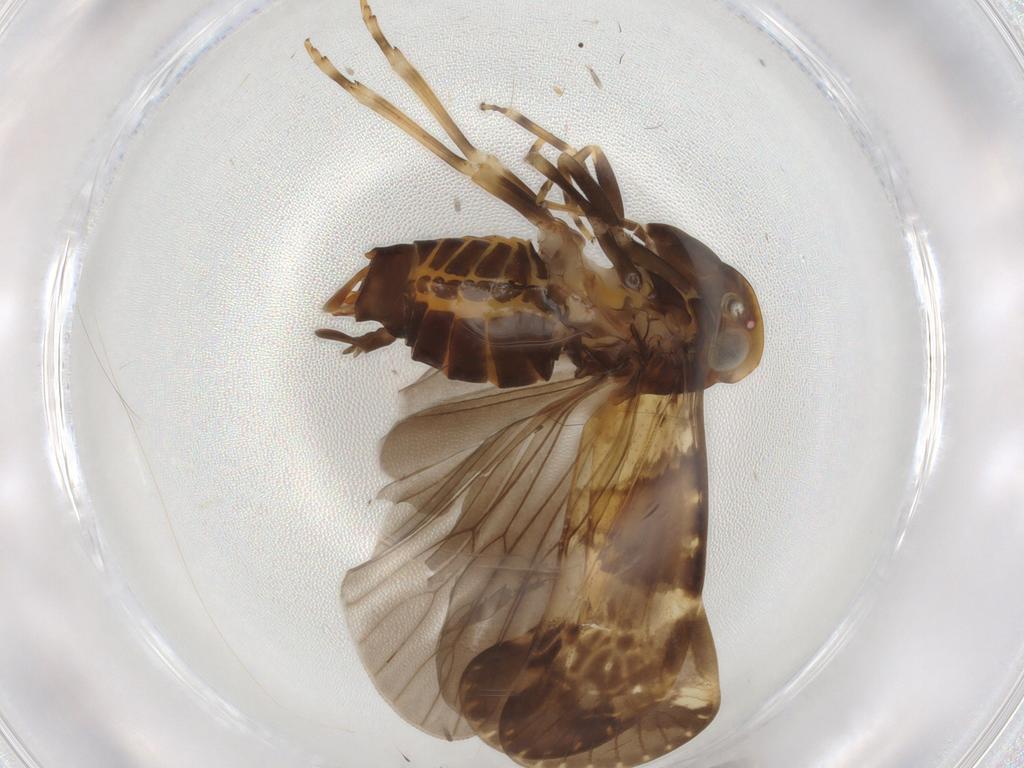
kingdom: Animalia
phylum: Arthropoda
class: Insecta
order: Hemiptera
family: Cixiidae
